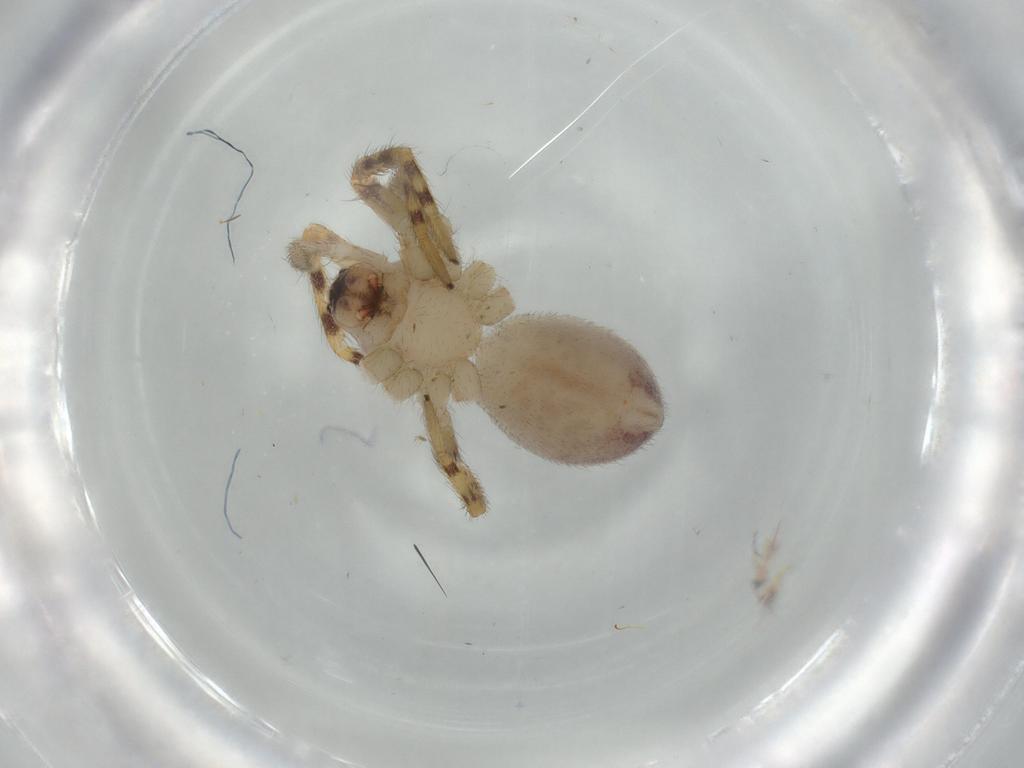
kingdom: Animalia
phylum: Arthropoda
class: Arachnida
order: Araneae
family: Corinnidae
